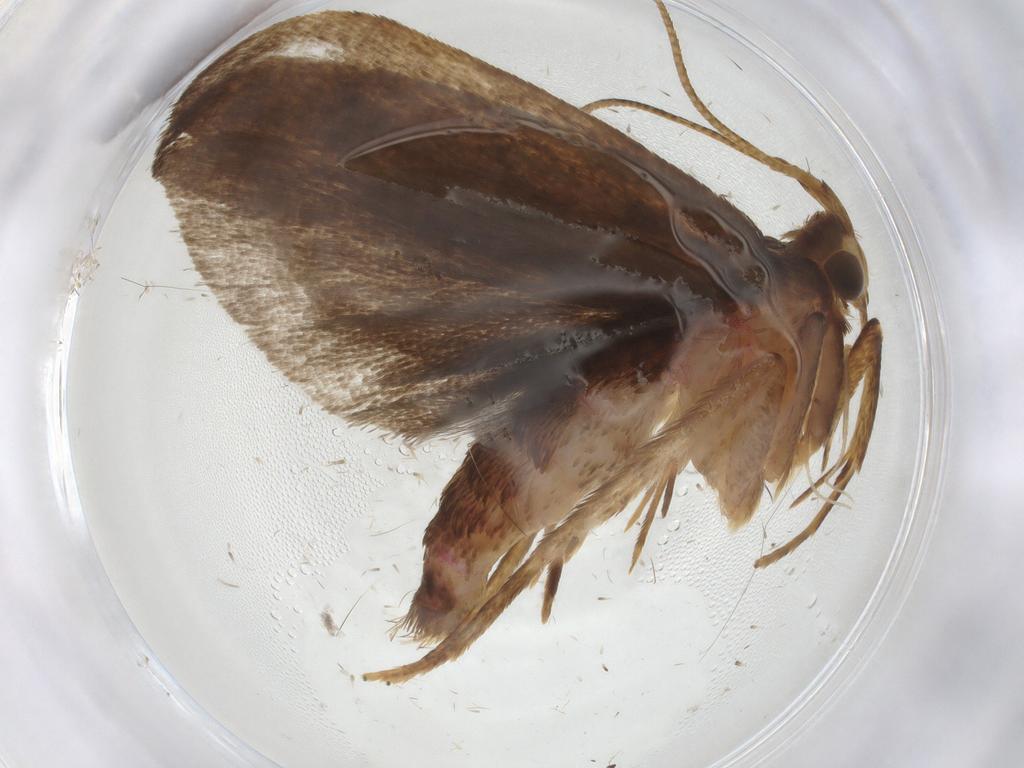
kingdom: Animalia
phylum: Arthropoda
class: Insecta
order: Lepidoptera
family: Autostichidae
